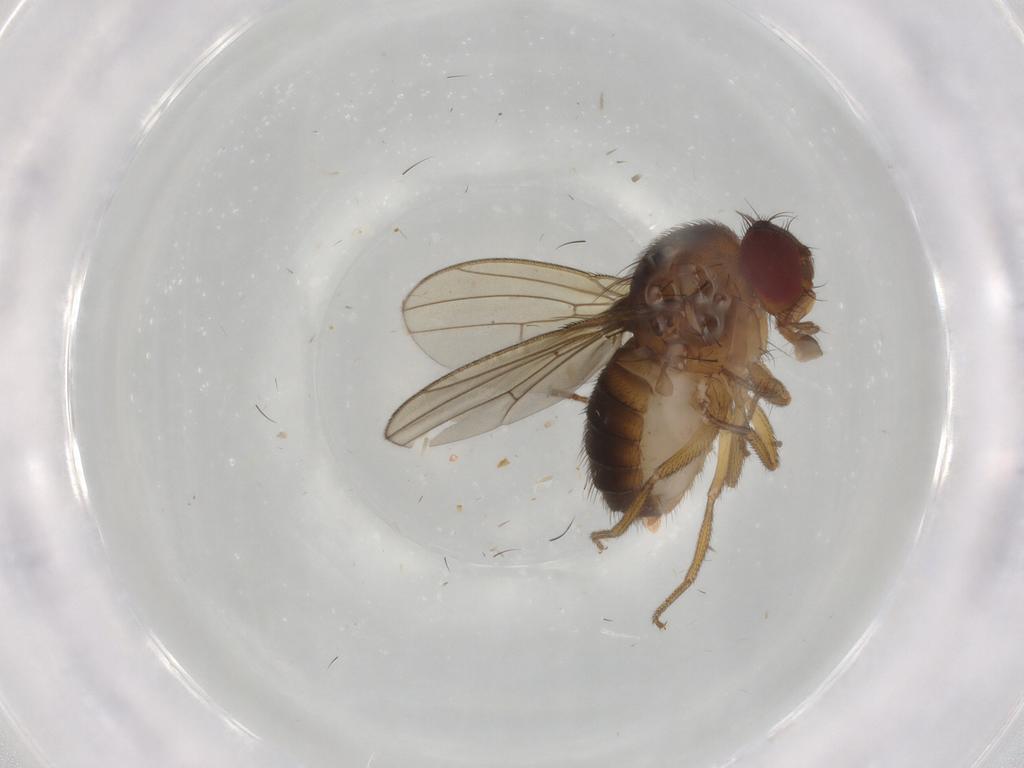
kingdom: Animalia
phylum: Arthropoda
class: Insecta
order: Diptera
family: Drosophilidae
